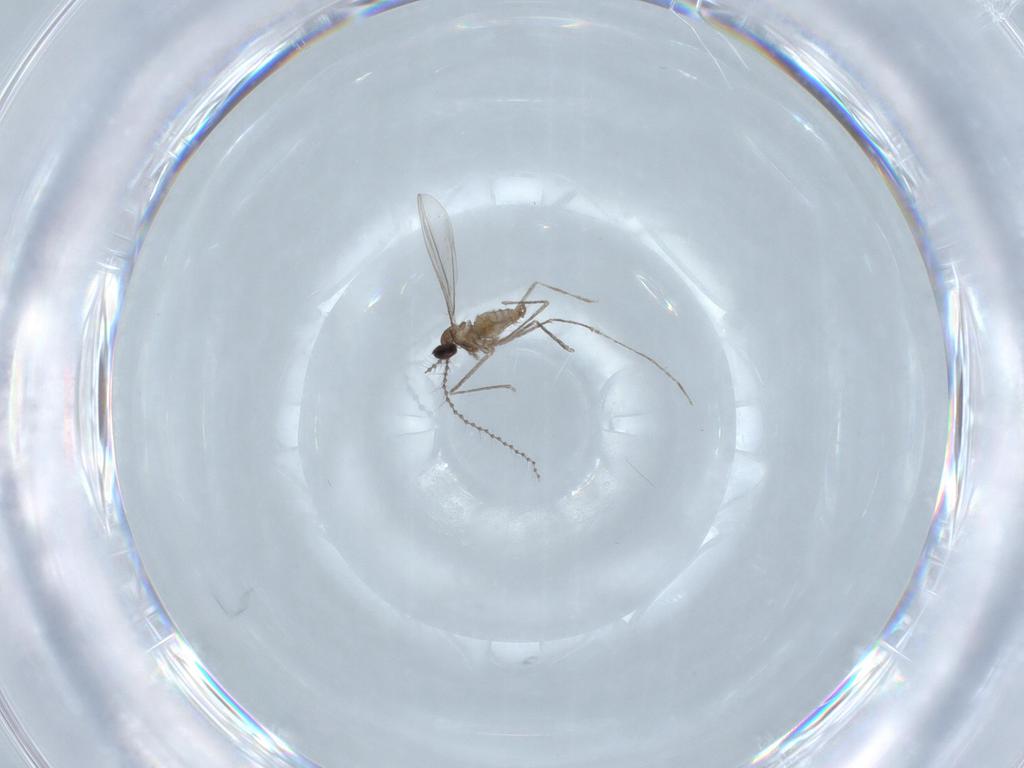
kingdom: Animalia
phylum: Arthropoda
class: Insecta
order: Diptera
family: Cecidomyiidae
